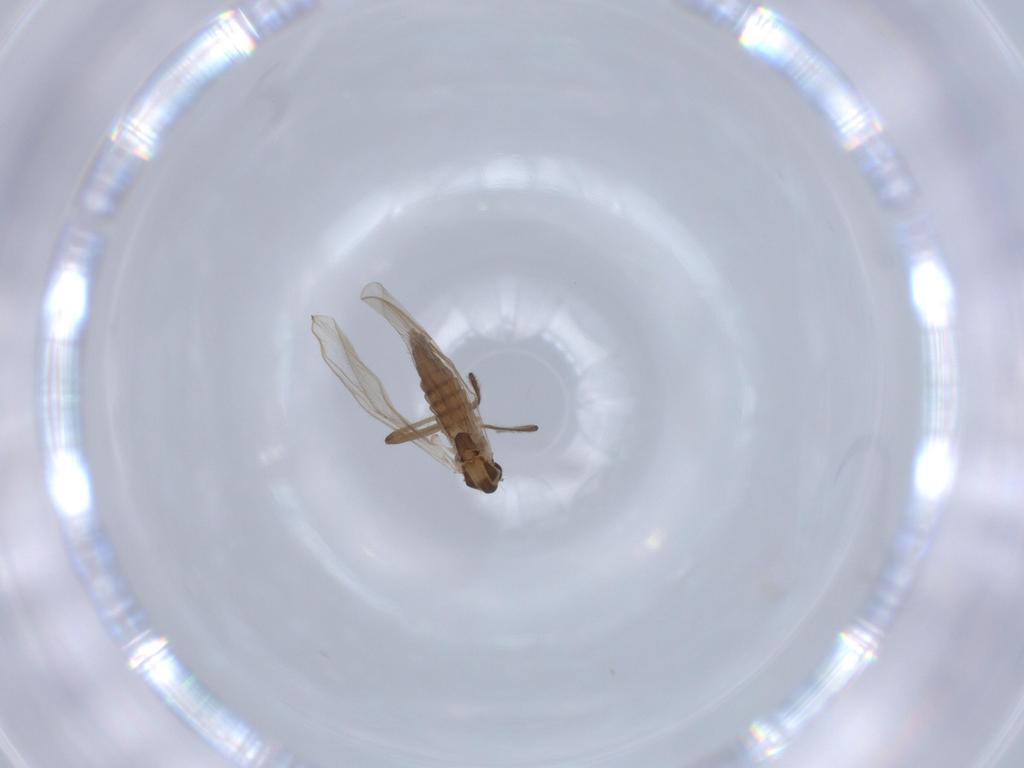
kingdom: Animalia
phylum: Arthropoda
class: Insecta
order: Diptera
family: Chironomidae
